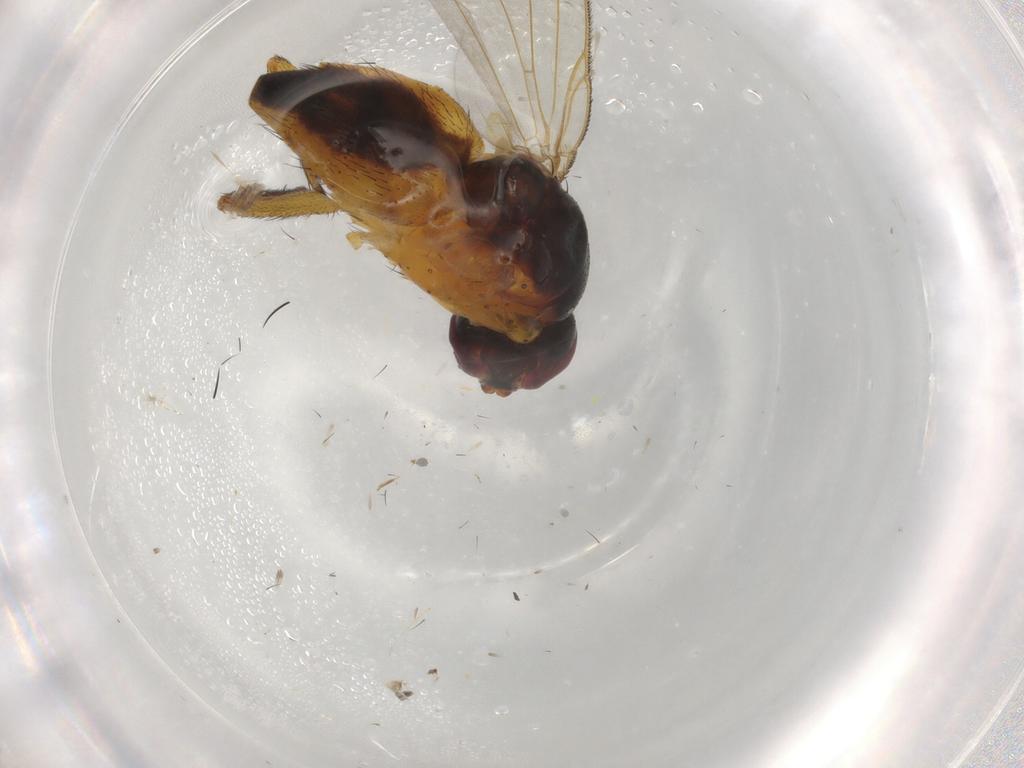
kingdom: Animalia
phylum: Arthropoda
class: Insecta
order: Diptera
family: Muscidae
